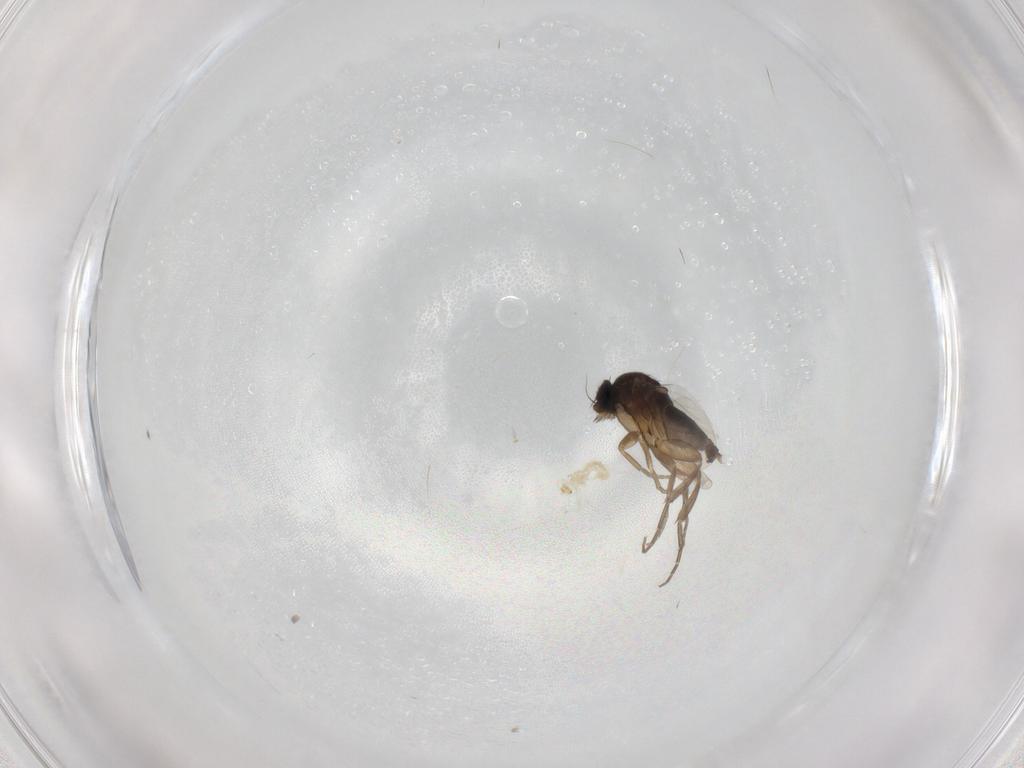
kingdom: Animalia
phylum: Arthropoda
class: Insecta
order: Diptera
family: Phoridae
